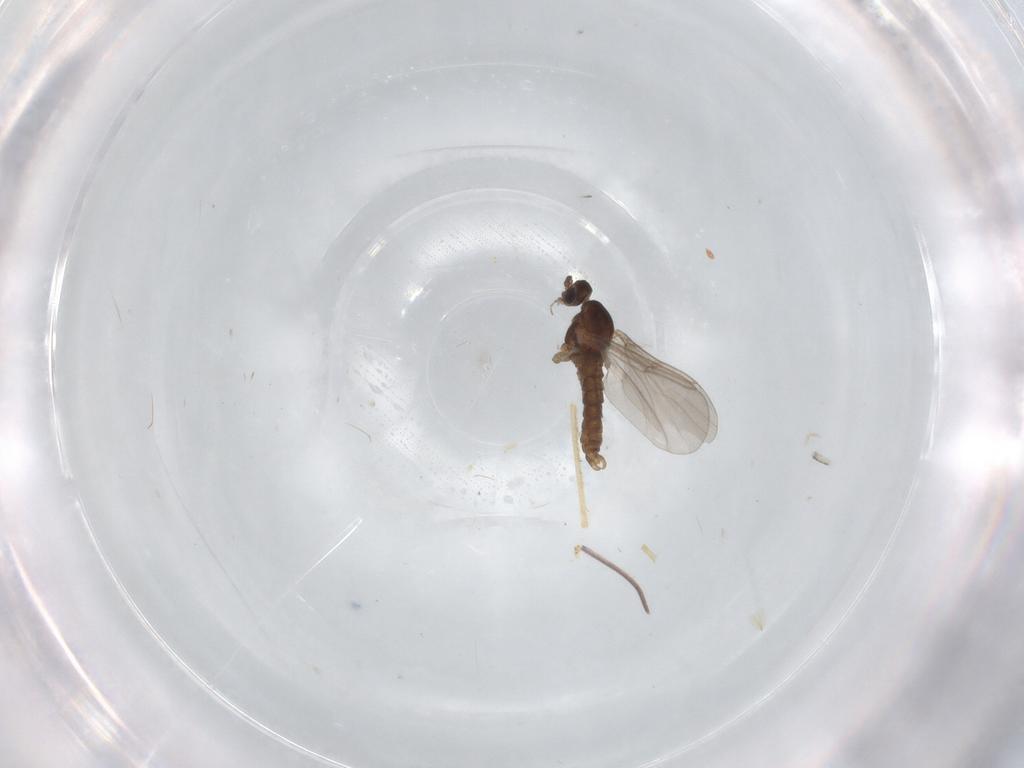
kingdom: Animalia
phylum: Arthropoda
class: Insecta
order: Diptera
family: Cecidomyiidae
